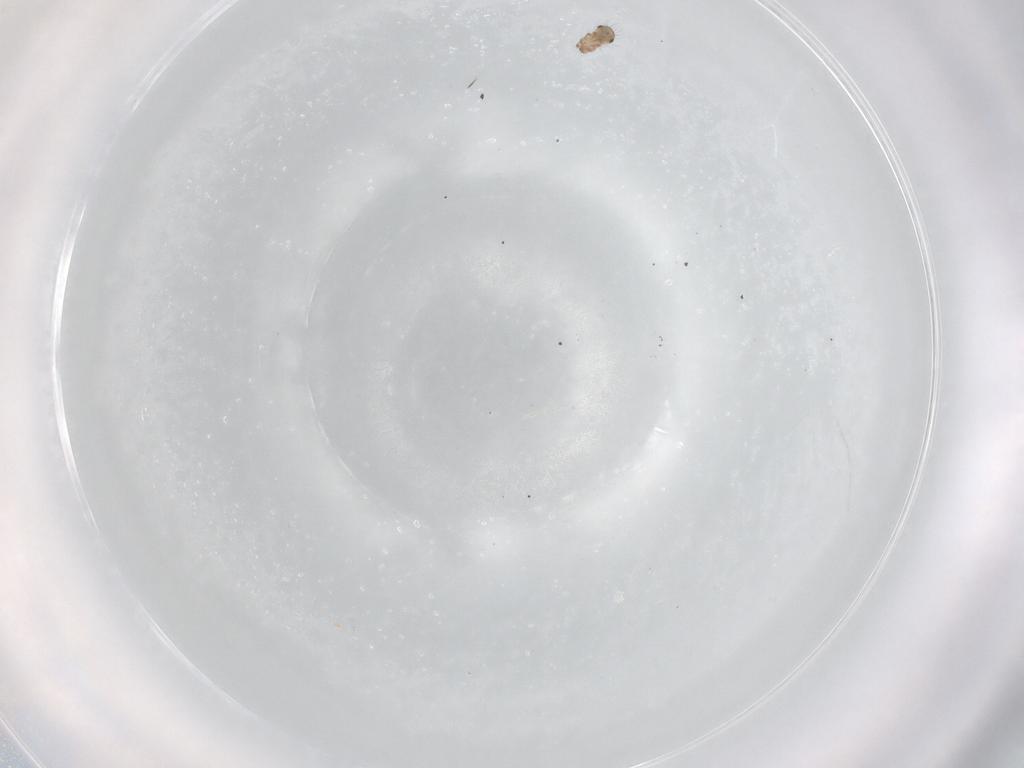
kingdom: Animalia
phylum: Arthropoda
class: Arachnida
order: Sarcoptiformes
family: Humerobatidae
